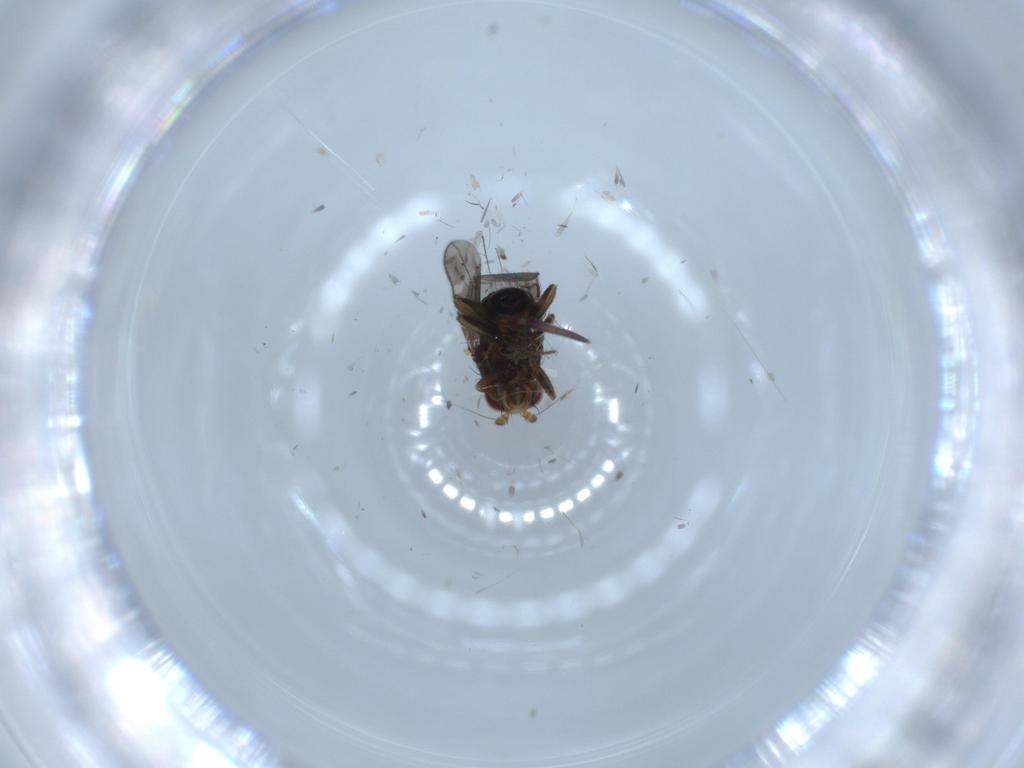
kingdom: Animalia
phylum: Arthropoda
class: Insecta
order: Diptera
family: Sphaeroceridae
